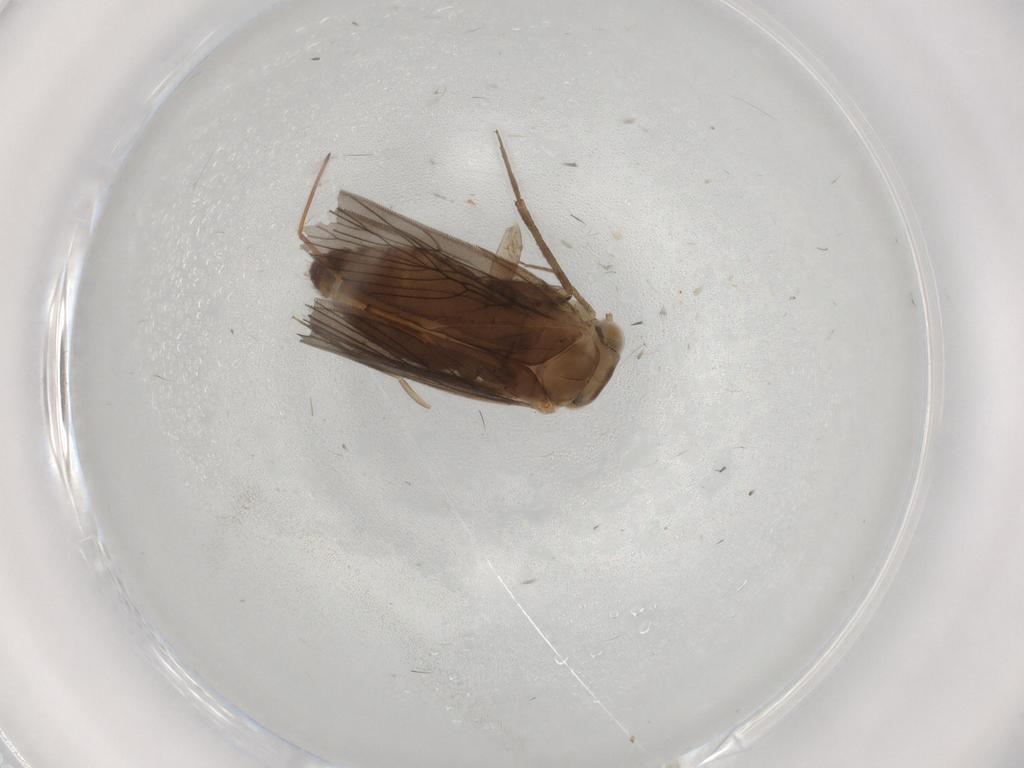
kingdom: Animalia
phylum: Arthropoda
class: Insecta
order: Psocodea
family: Lepidopsocidae
